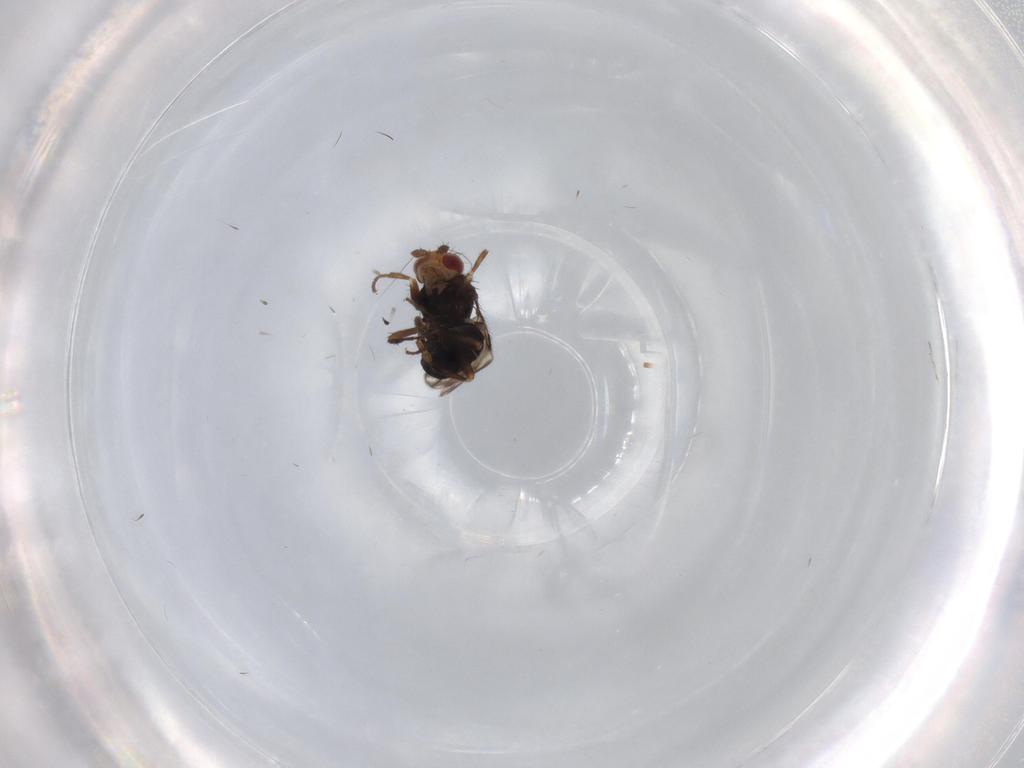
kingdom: Animalia
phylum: Arthropoda
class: Insecta
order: Diptera
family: Sphaeroceridae
